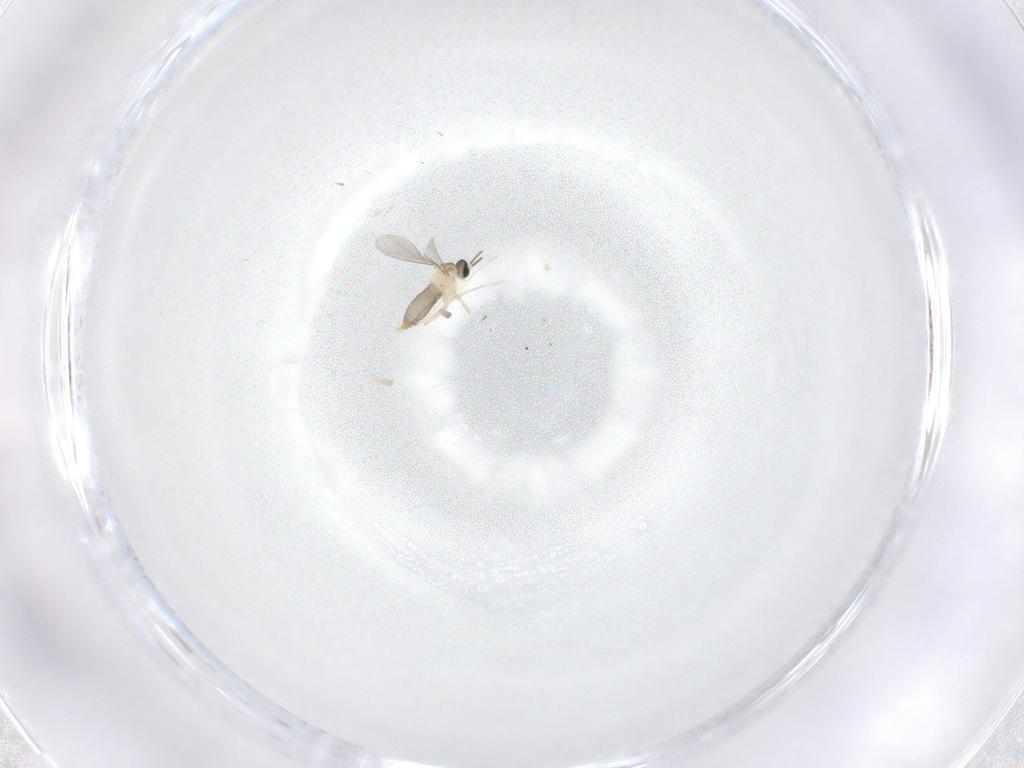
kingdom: Animalia
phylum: Arthropoda
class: Insecta
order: Diptera
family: Cecidomyiidae
